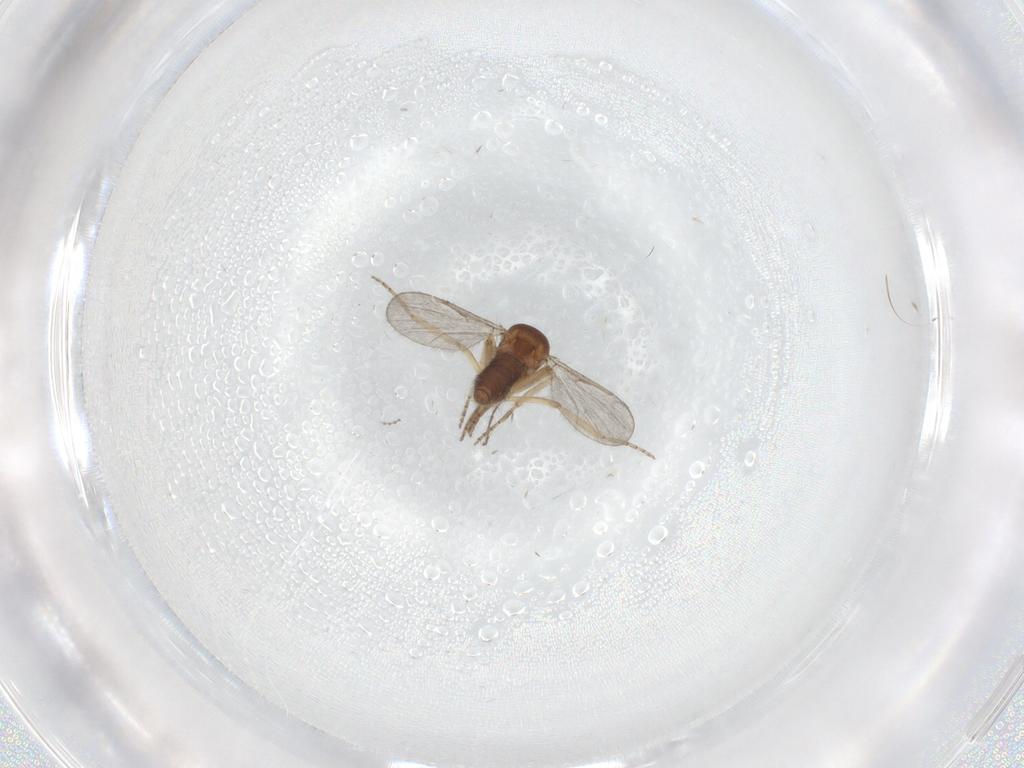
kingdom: Animalia
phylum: Arthropoda
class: Insecta
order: Diptera
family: Ceratopogonidae
